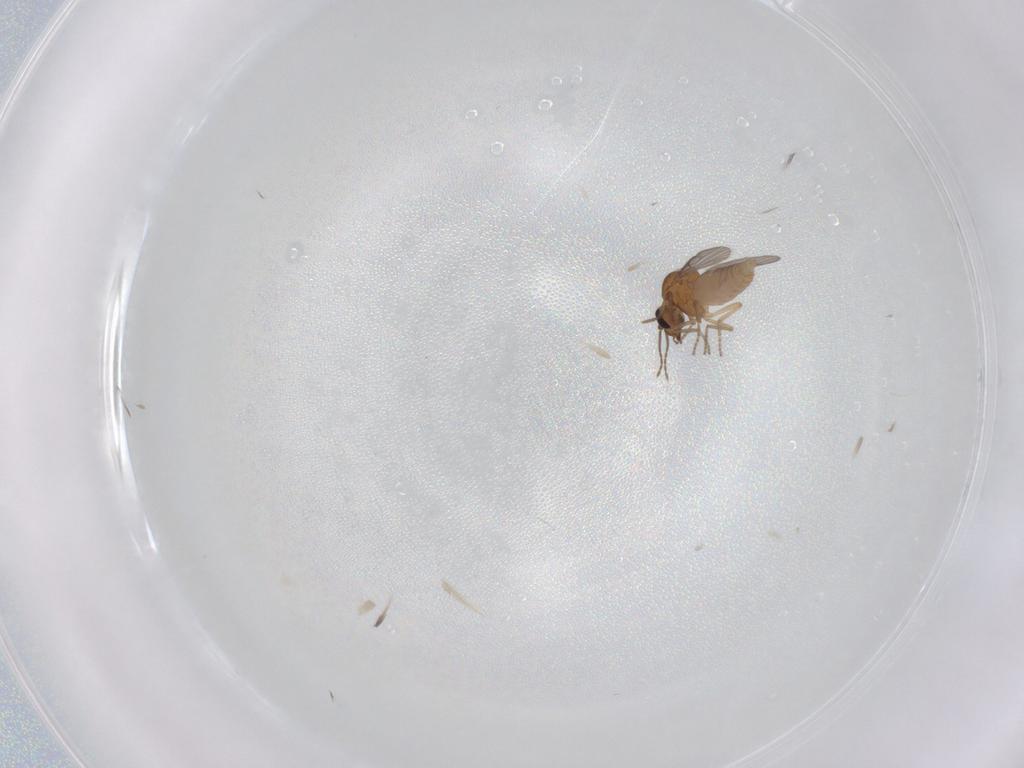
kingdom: Animalia
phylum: Arthropoda
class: Insecta
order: Diptera
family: Ceratopogonidae
